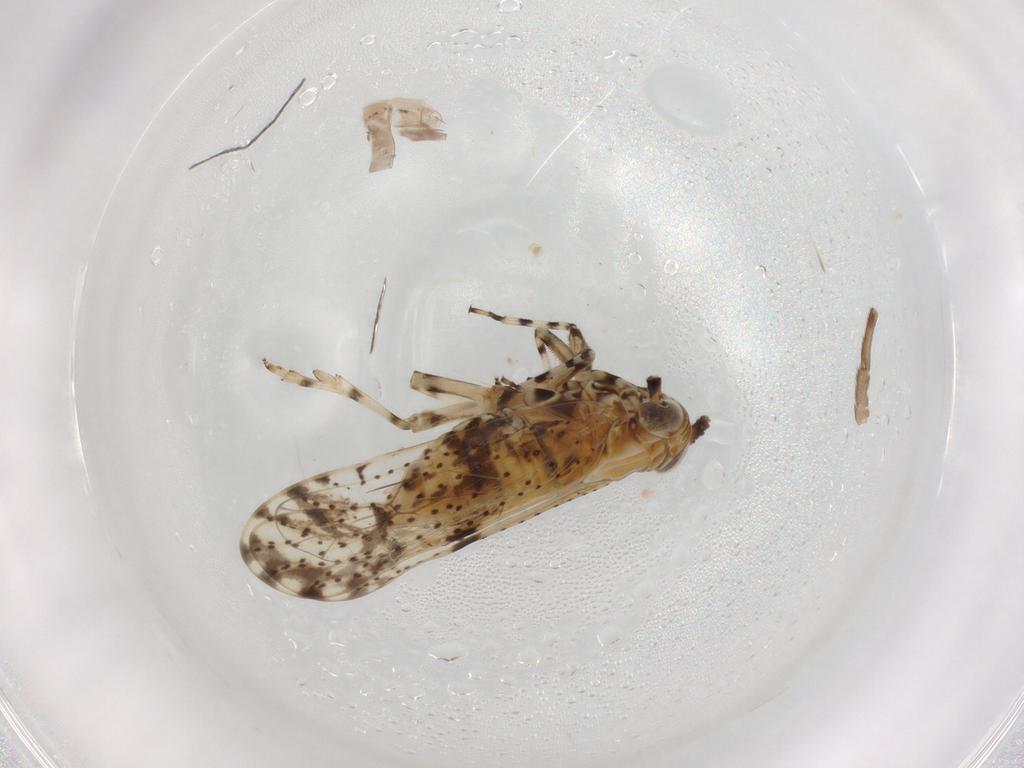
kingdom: Animalia
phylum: Arthropoda
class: Insecta
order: Hemiptera
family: Delphacidae
